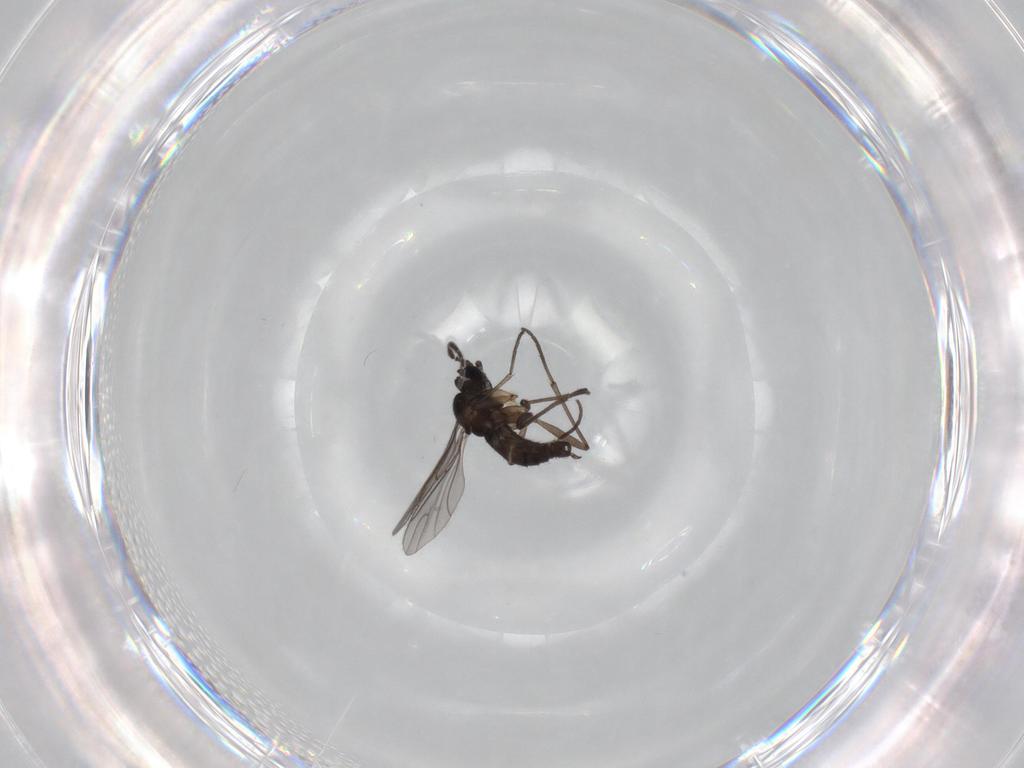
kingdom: Animalia
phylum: Arthropoda
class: Insecta
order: Diptera
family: Sciaridae
